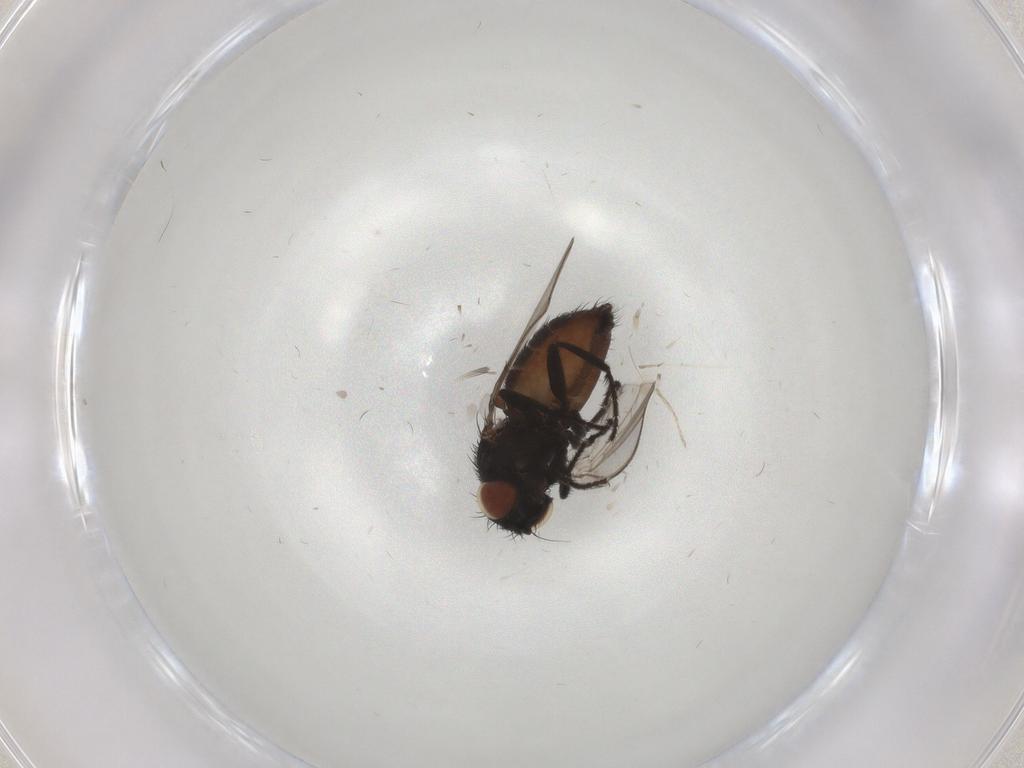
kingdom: Animalia
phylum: Arthropoda
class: Insecta
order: Diptera
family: Milichiidae
